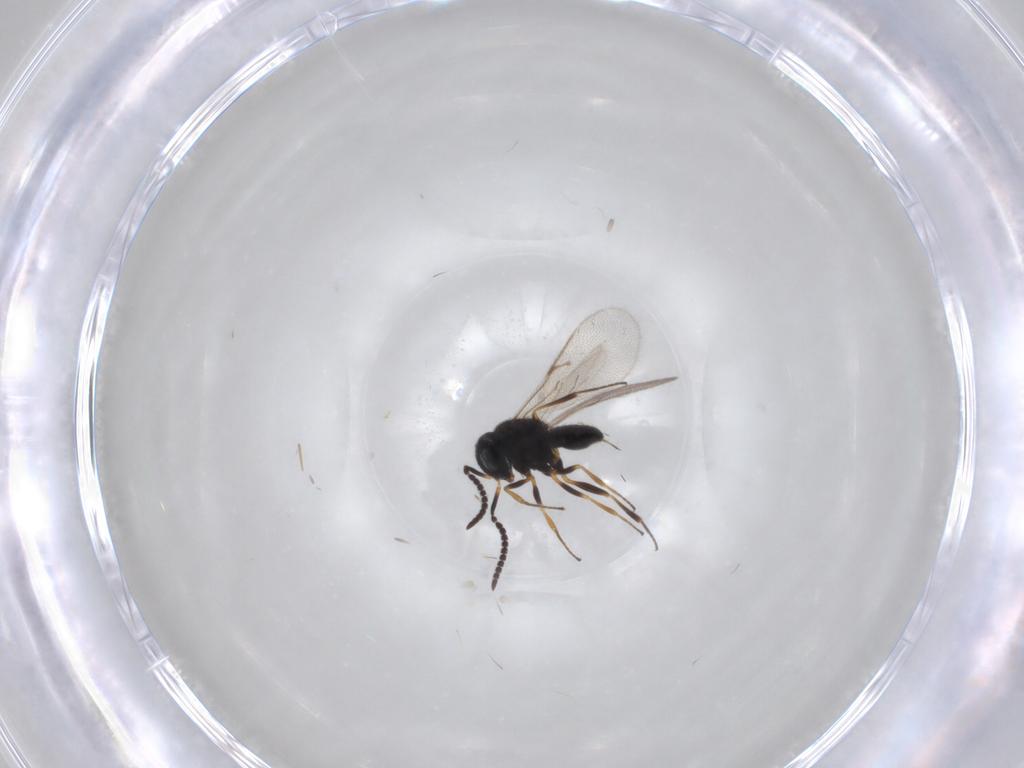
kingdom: Animalia
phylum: Arthropoda
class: Insecta
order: Hymenoptera
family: Scelionidae
